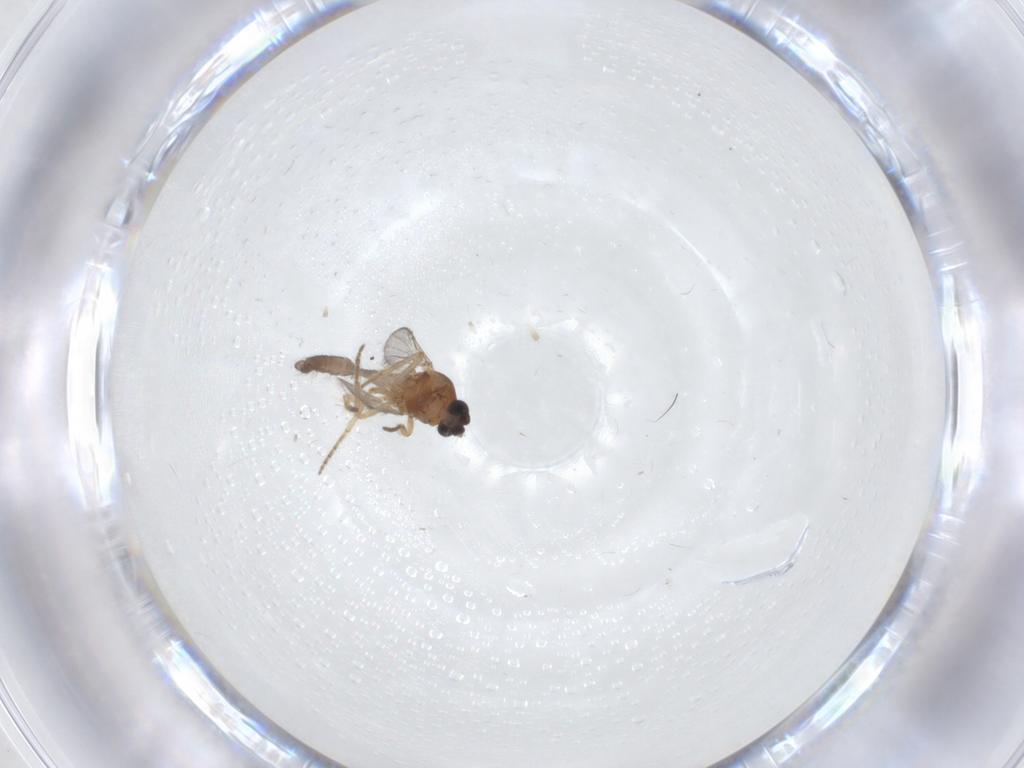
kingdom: Animalia
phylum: Arthropoda
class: Insecta
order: Diptera
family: Ceratopogonidae
